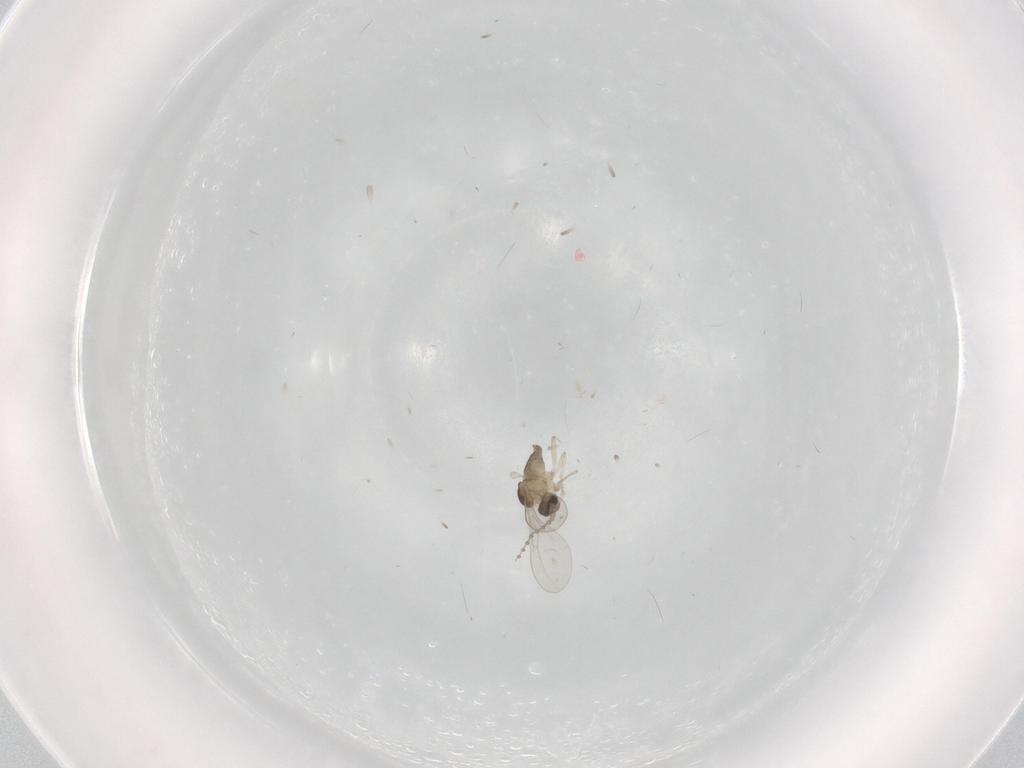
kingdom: Animalia
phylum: Arthropoda
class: Insecta
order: Diptera
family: Cecidomyiidae
